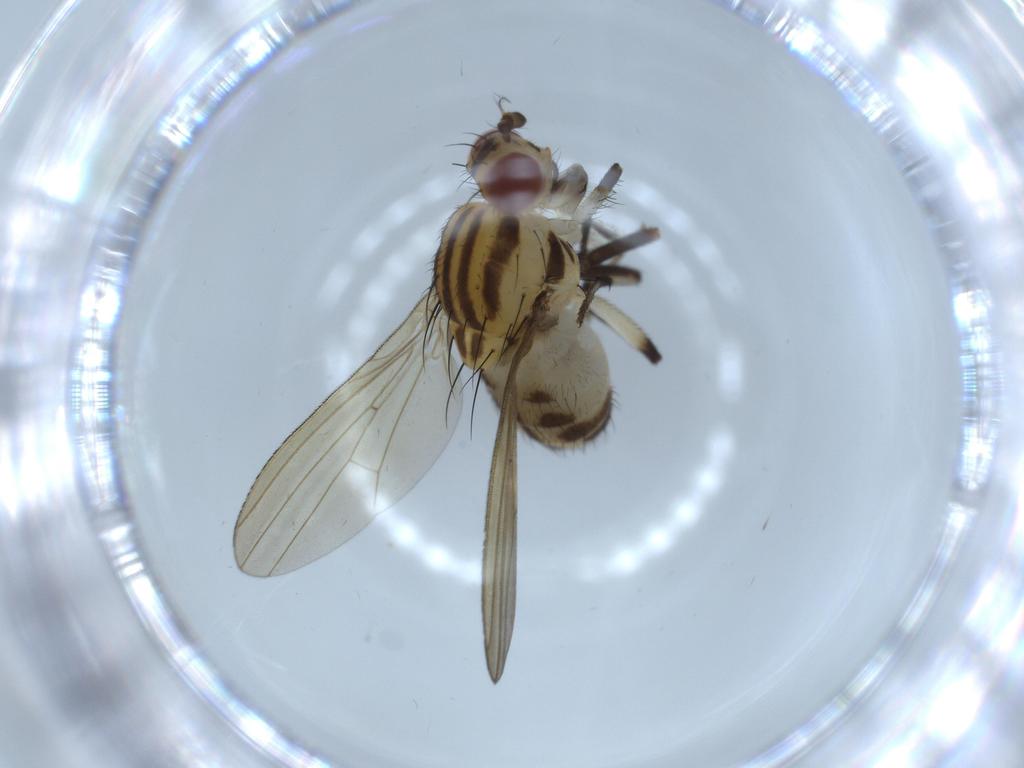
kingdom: Animalia
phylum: Arthropoda
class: Insecta
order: Diptera
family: Lauxaniidae
